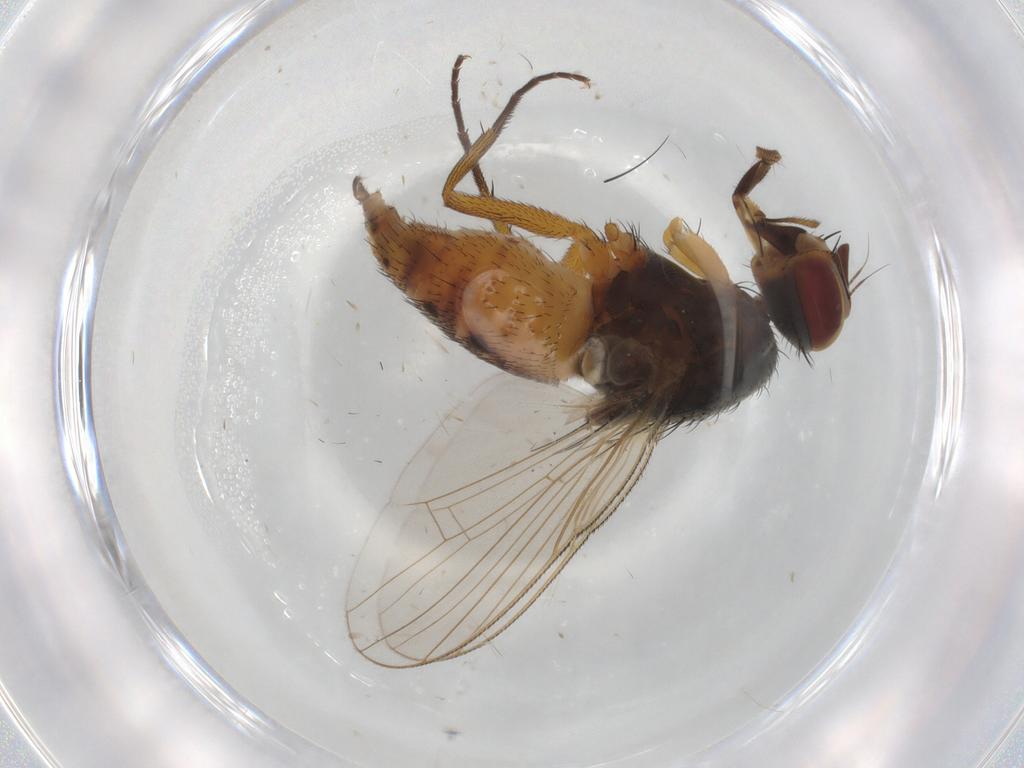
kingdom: Animalia
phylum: Arthropoda
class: Insecta
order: Diptera
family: Muscidae
